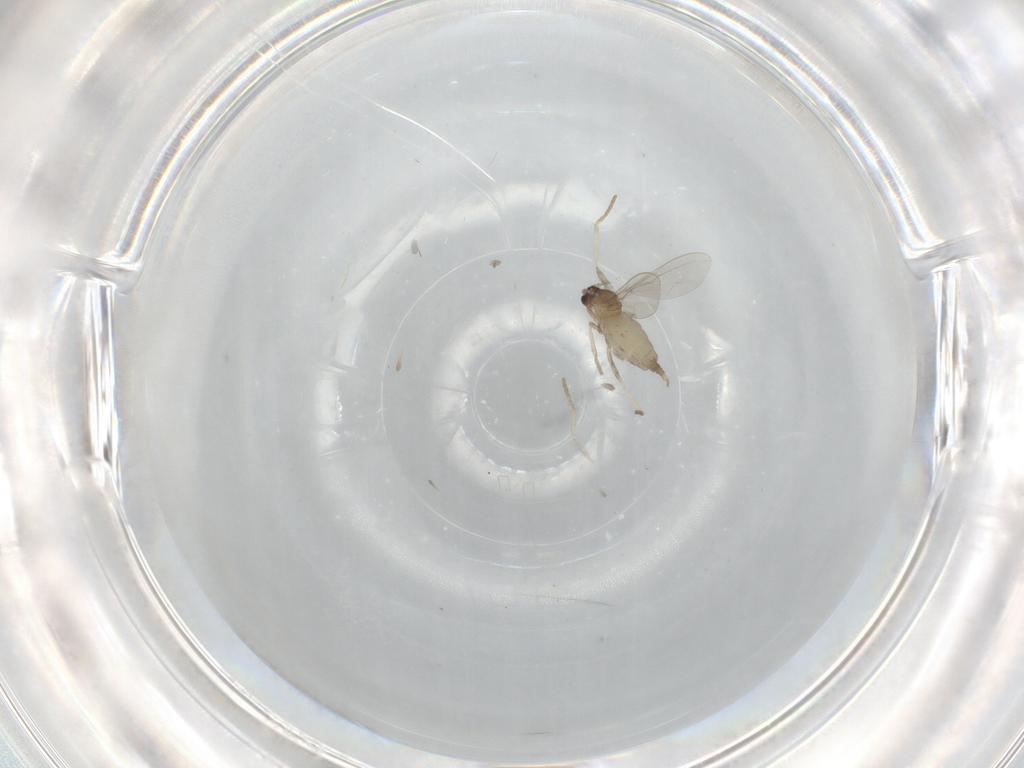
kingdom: Animalia
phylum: Arthropoda
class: Insecta
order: Diptera
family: Cecidomyiidae
